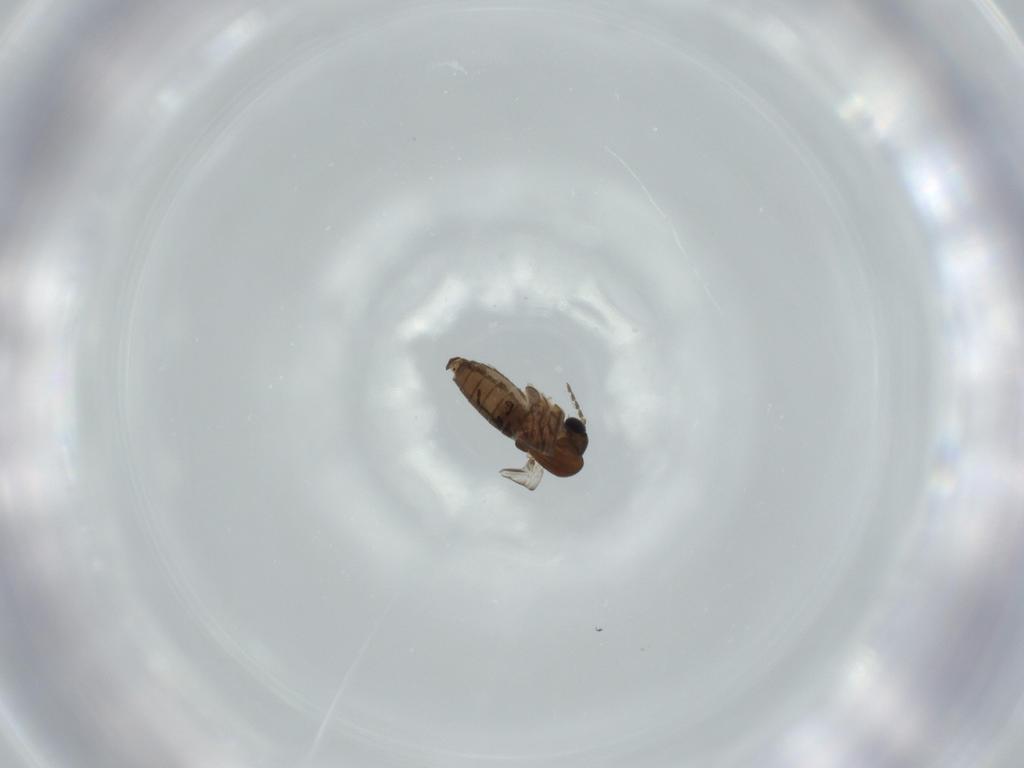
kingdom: Animalia
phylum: Arthropoda
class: Insecta
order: Diptera
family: Psychodidae
